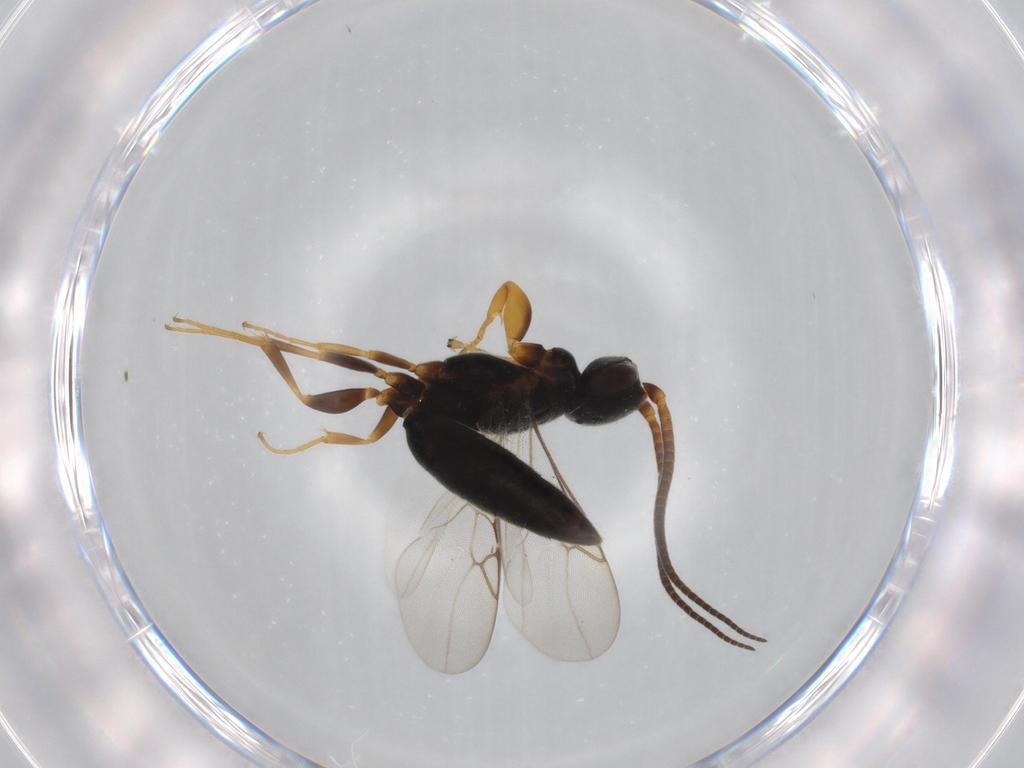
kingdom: Animalia
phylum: Arthropoda
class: Insecta
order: Hymenoptera
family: Sclerogibbidae
